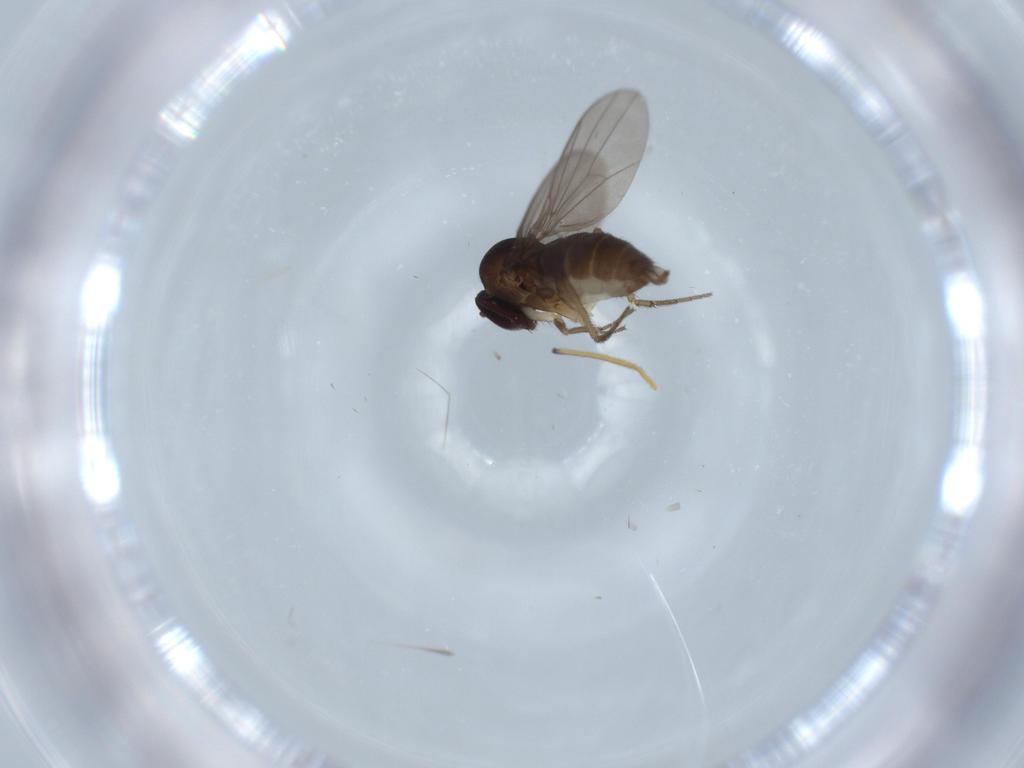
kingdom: Animalia
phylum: Arthropoda
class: Insecta
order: Diptera
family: Dolichopodidae
